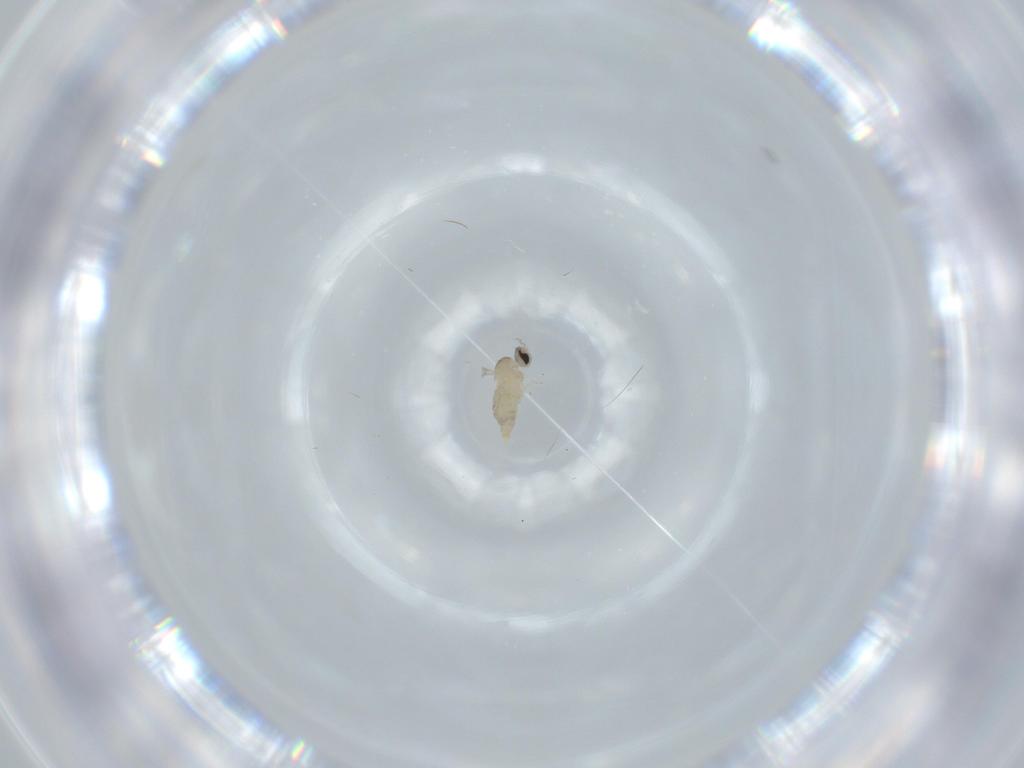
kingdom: Animalia
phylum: Arthropoda
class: Insecta
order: Diptera
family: Cecidomyiidae
